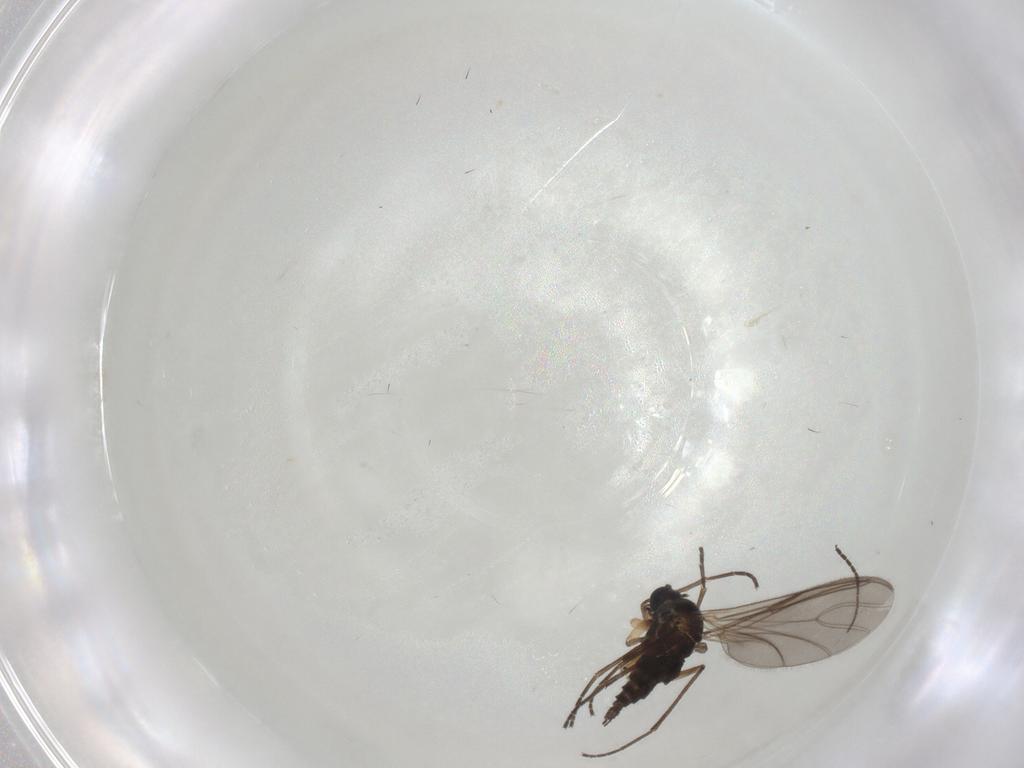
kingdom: Animalia
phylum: Arthropoda
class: Insecta
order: Diptera
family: Sciaridae
